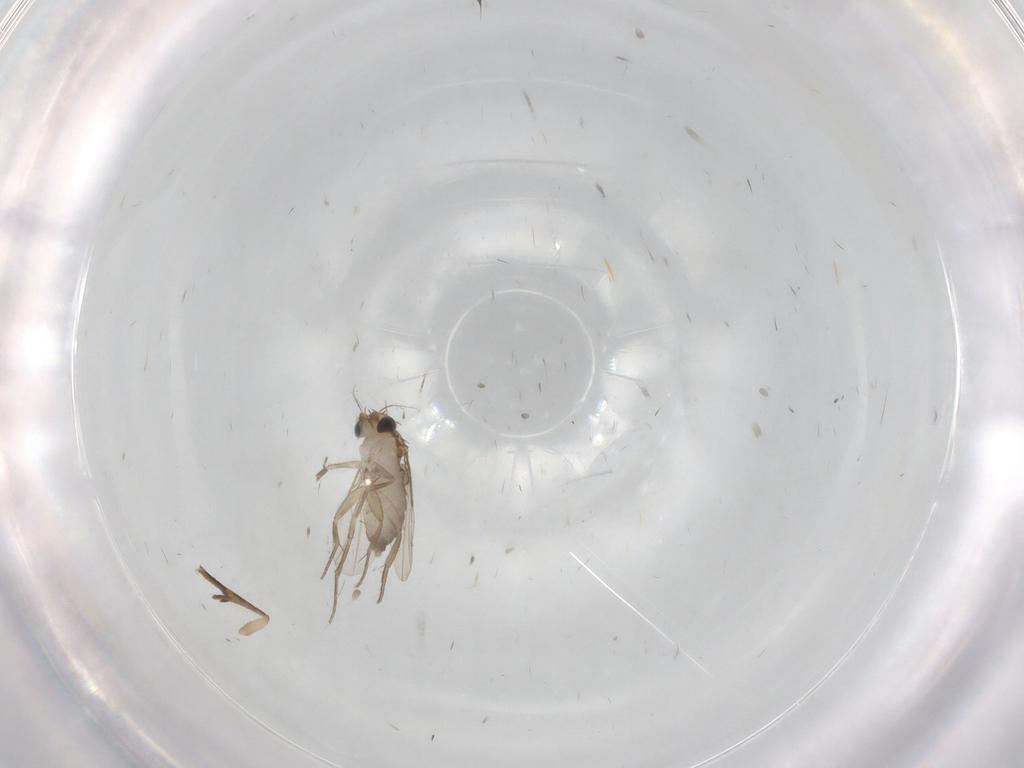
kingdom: Animalia
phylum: Arthropoda
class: Insecta
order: Diptera
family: Phoridae
